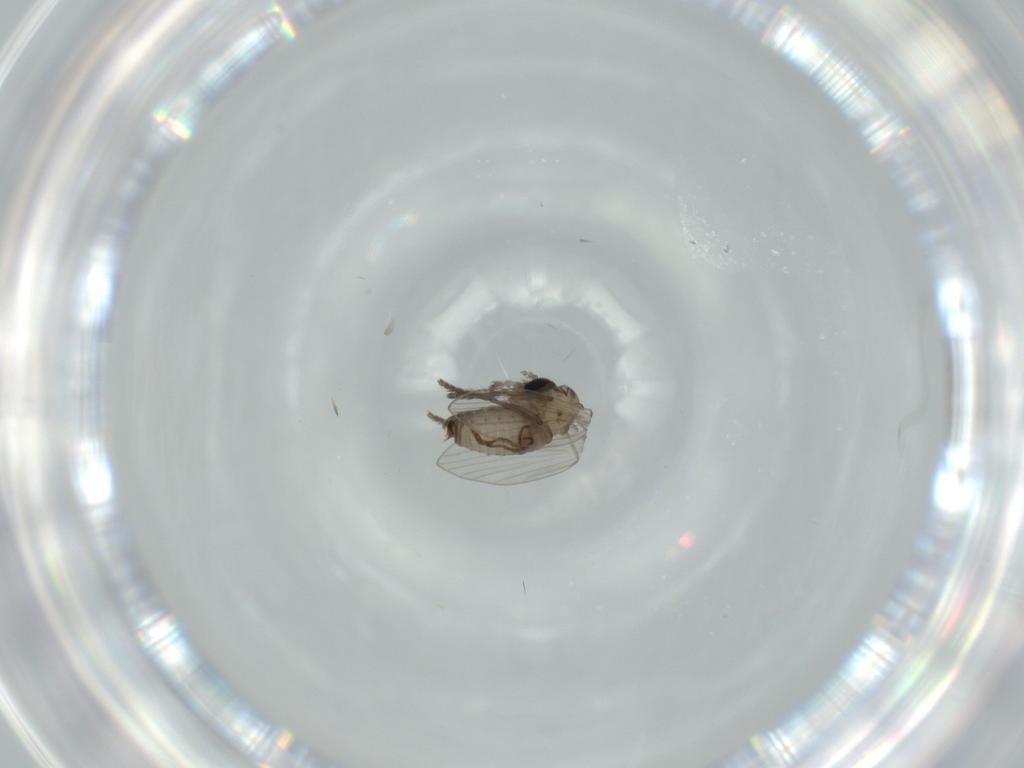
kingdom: Animalia
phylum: Arthropoda
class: Insecta
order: Diptera
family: Psychodidae
